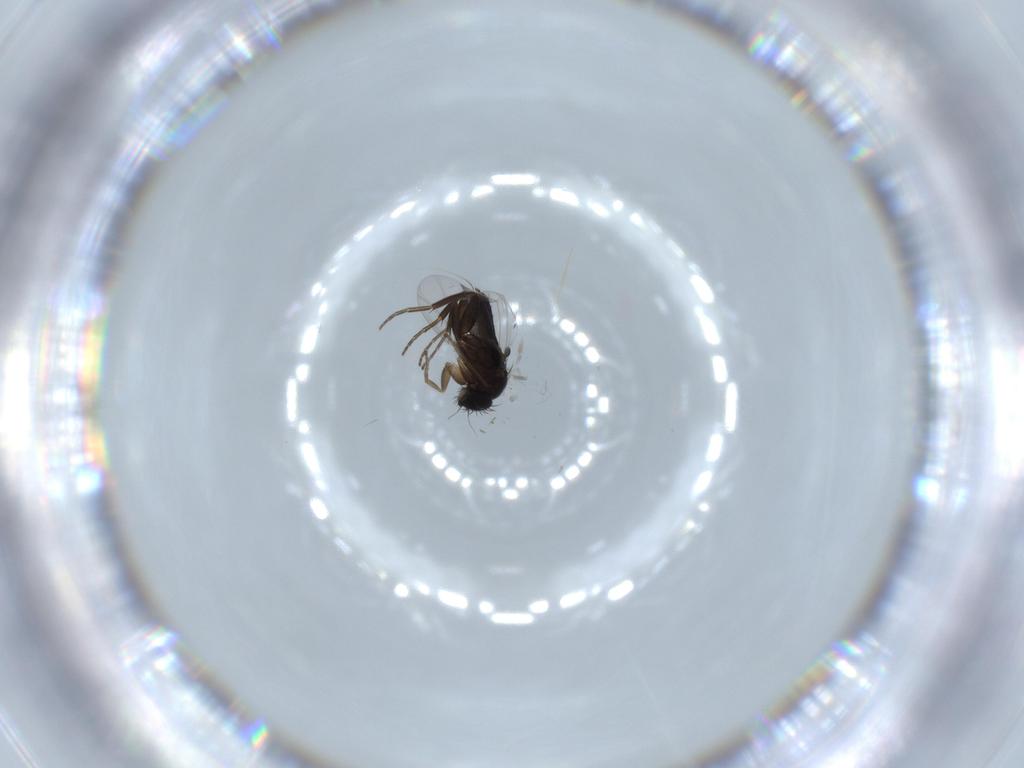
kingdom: Animalia
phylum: Arthropoda
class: Insecta
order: Diptera
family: Phoridae
